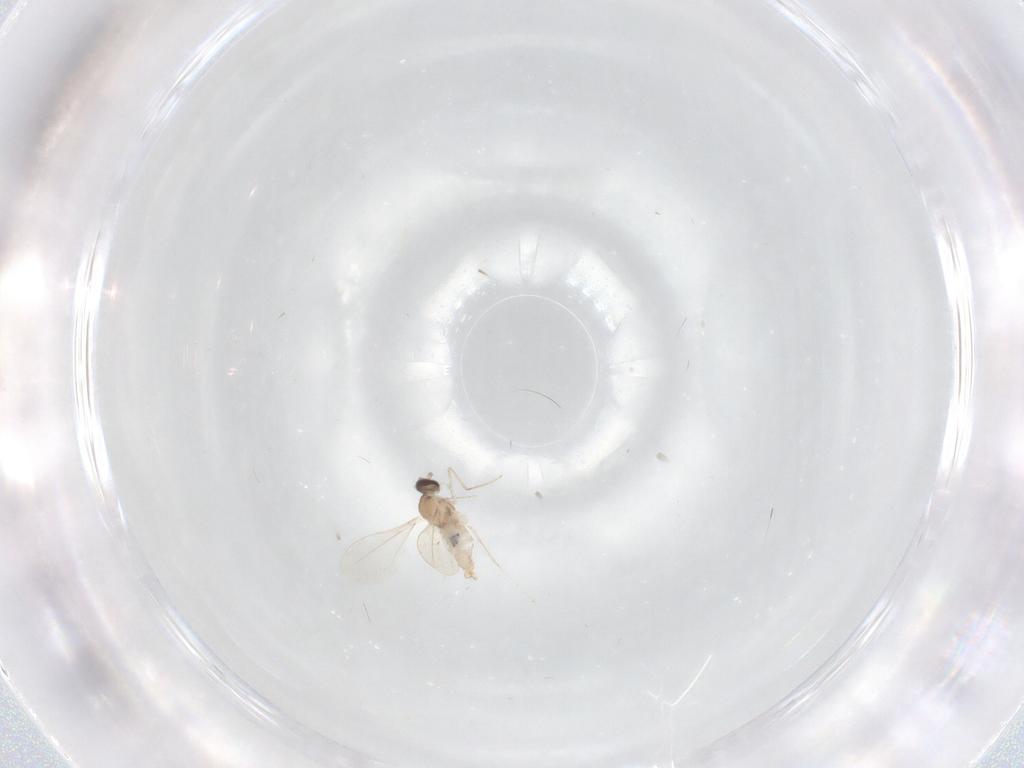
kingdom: Animalia
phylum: Arthropoda
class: Insecta
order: Diptera
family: Cecidomyiidae
